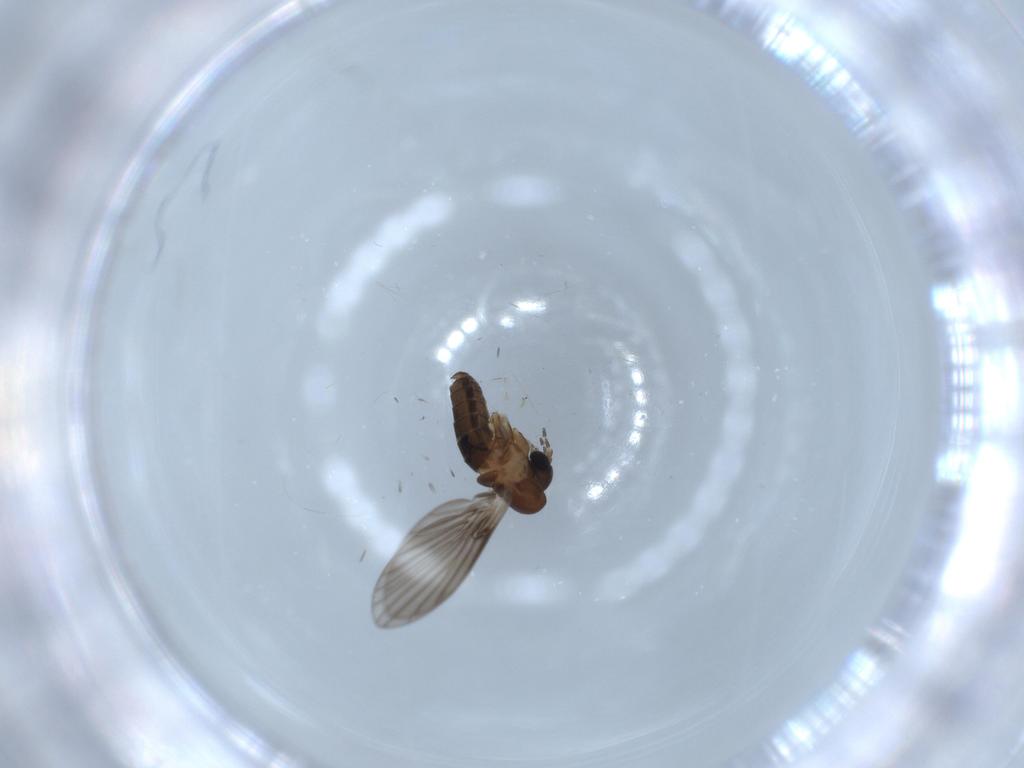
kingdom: Animalia
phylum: Arthropoda
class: Insecta
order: Diptera
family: Psychodidae
